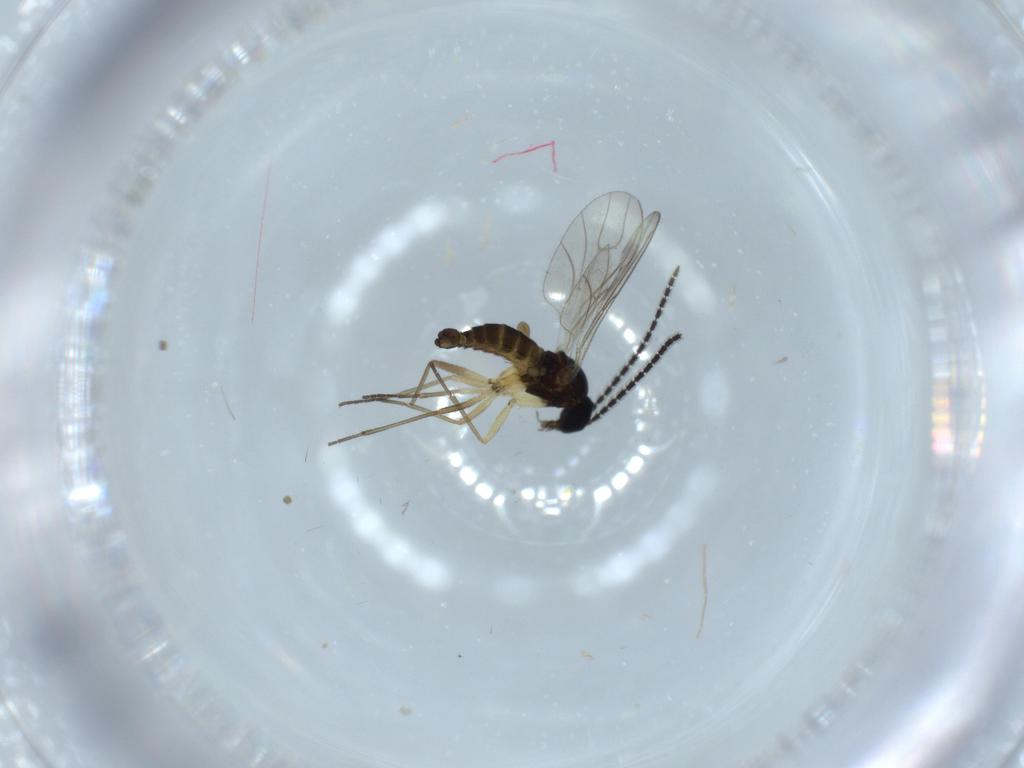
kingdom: Animalia
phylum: Arthropoda
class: Insecta
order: Diptera
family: Sciaridae
